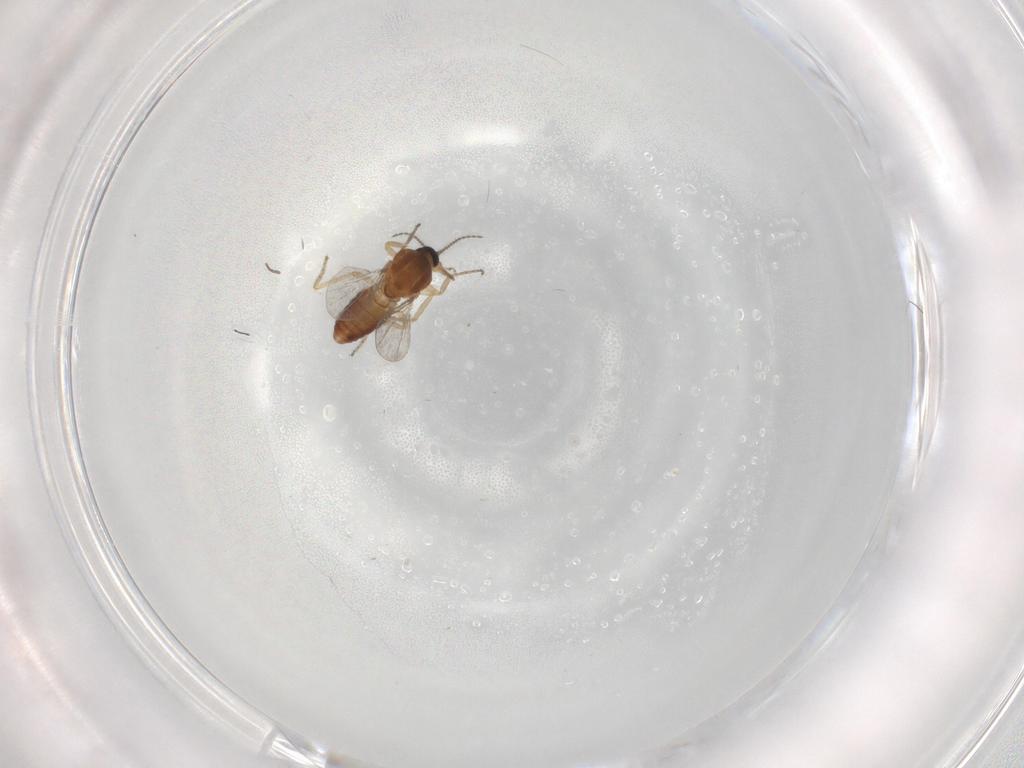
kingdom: Animalia
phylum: Arthropoda
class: Insecta
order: Diptera
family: Ceratopogonidae
